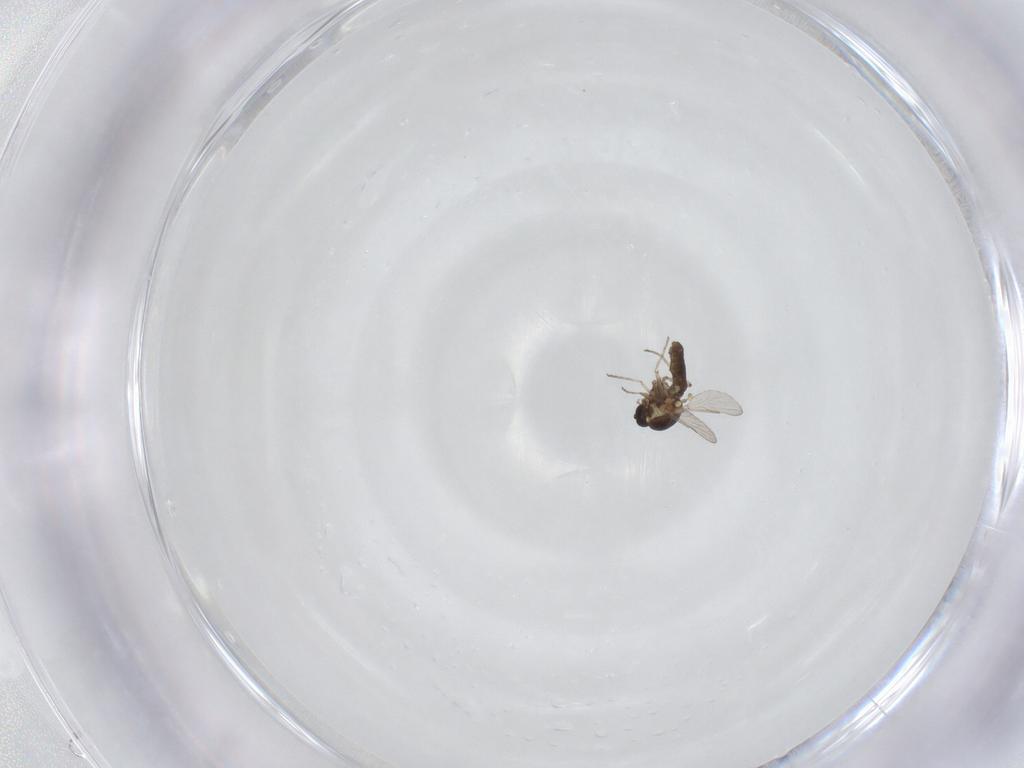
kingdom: Animalia
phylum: Arthropoda
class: Insecta
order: Diptera
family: Ceratopogonidae
